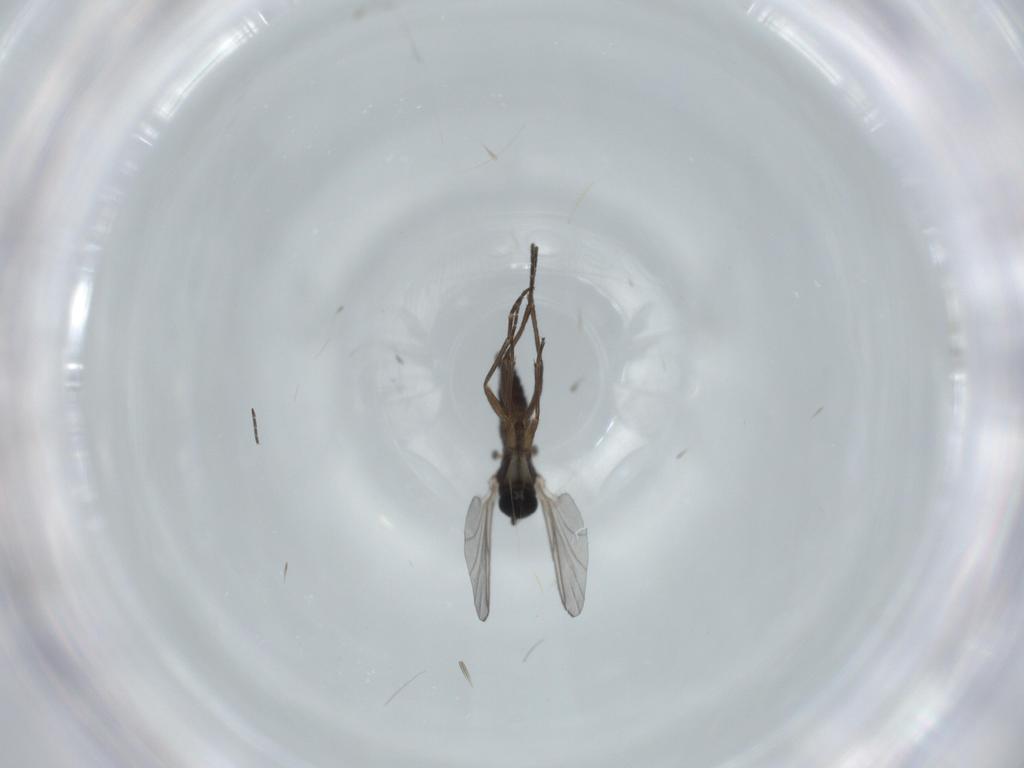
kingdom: Animalia
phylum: Arthropoda
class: Insecta
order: Diptera
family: Sciaridae
